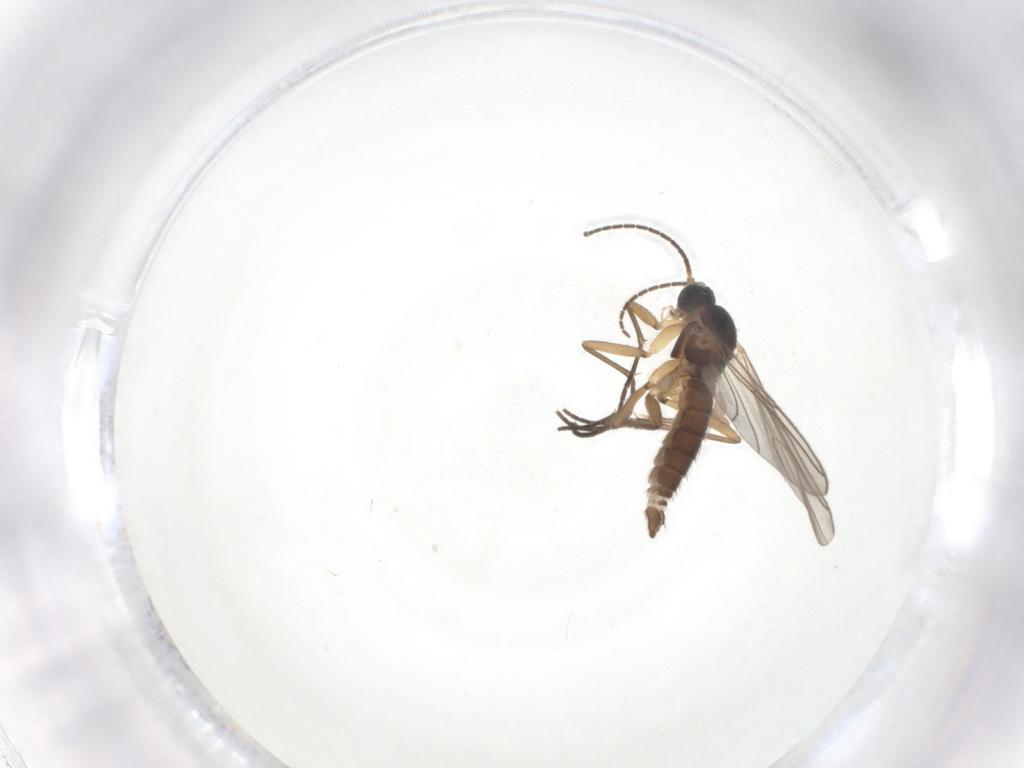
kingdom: Animalia
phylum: Arthropoda
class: Insecta
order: Diptera
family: Sciaridae
